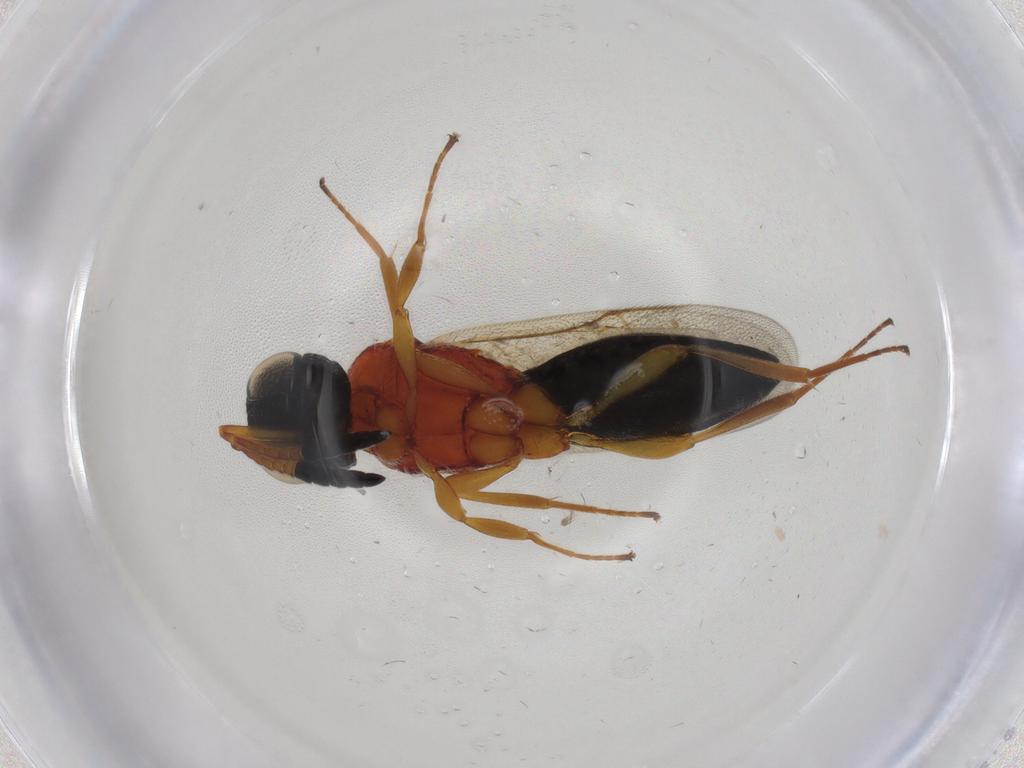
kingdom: Animalia
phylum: Arthropoda
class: Insecta
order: Hymenoptera
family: Scelionidae
